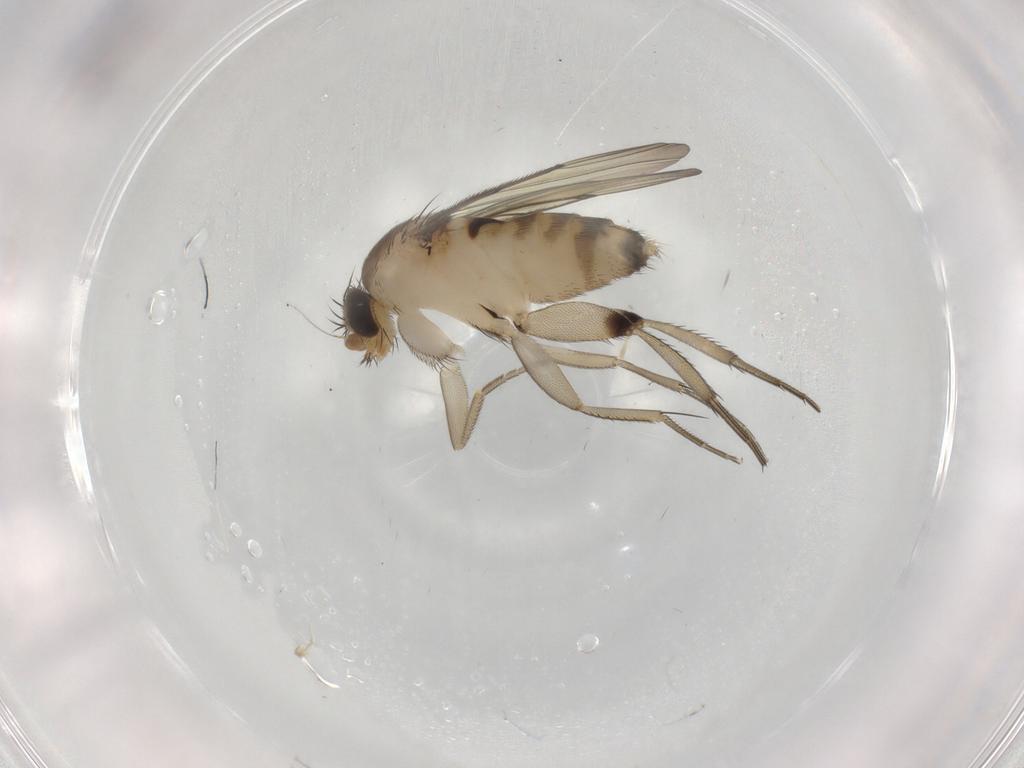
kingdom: Animalia
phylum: Arthropoda
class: Insecta
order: Diptera
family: Phoridae
